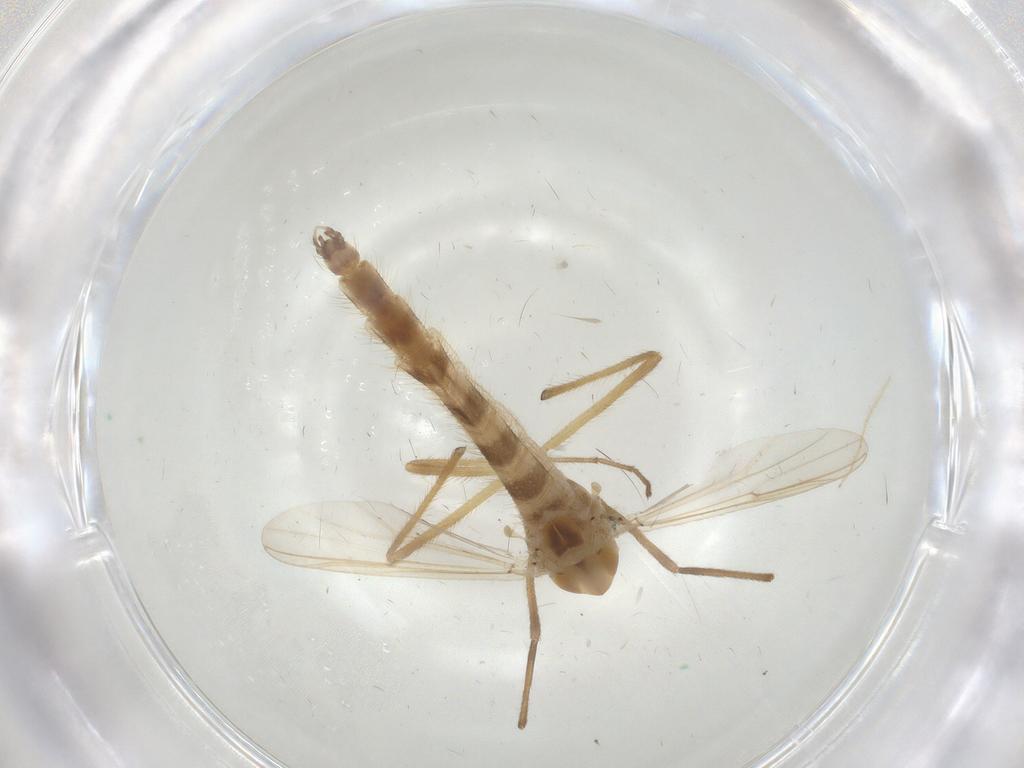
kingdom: Animalia
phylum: Arthropoda
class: Insecta
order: Diptera
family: Chironomidae
